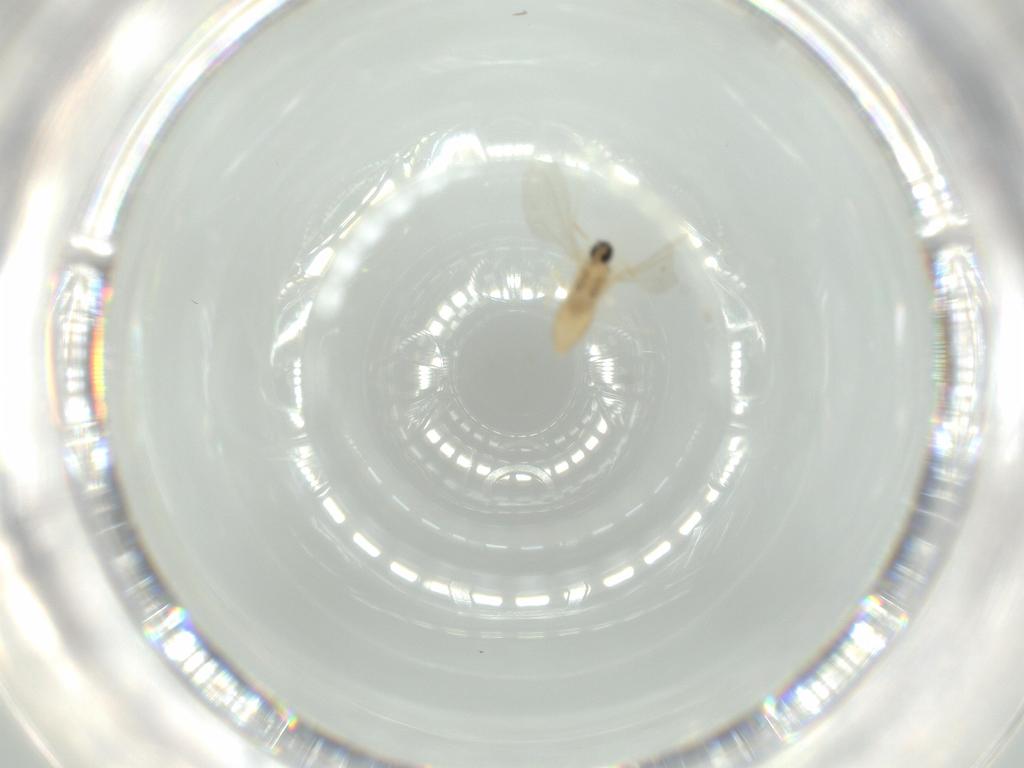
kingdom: Animalia
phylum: Arthropoda
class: Insecta
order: Diptera
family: Cecidomyiidae
